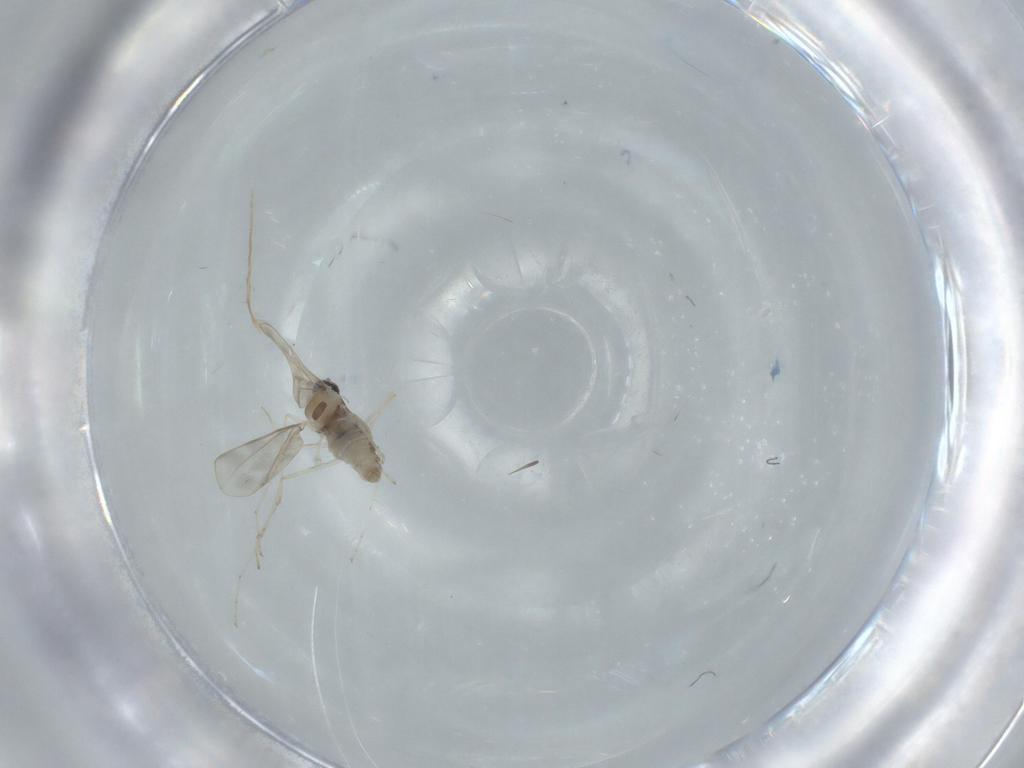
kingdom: Animalia
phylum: Arthropoda
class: Insecta
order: Diptera
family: Cecidomyiidae
